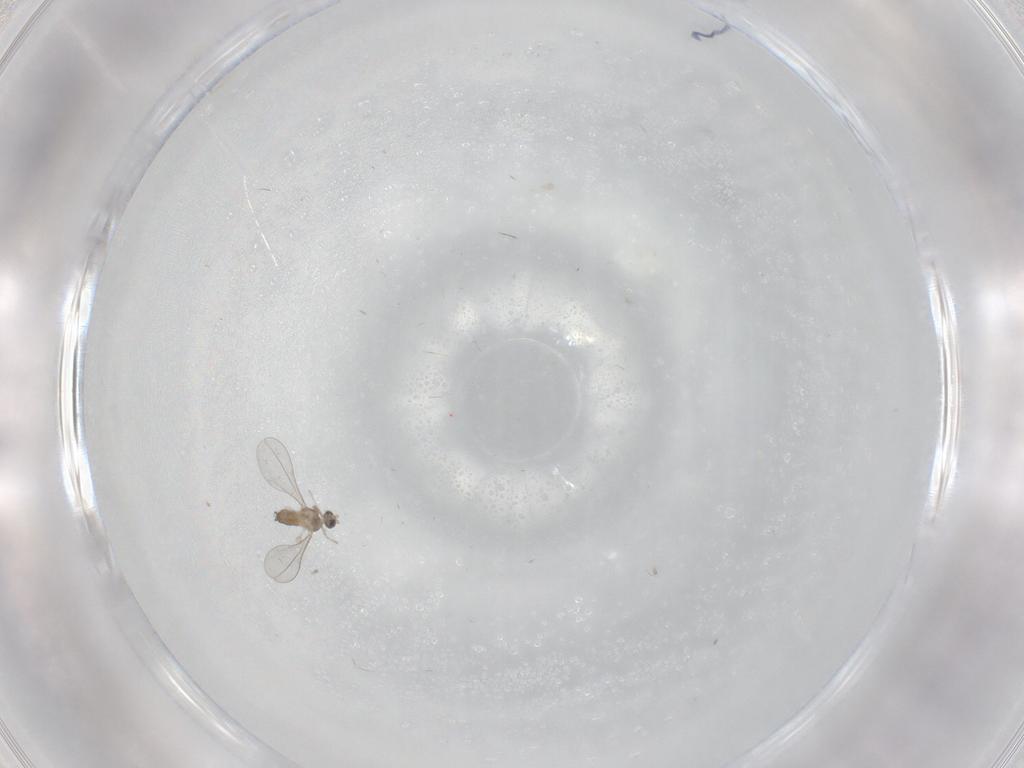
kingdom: Animalia
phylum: Arthropoda
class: Insecta
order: Diptera
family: Cecidomyiidae
